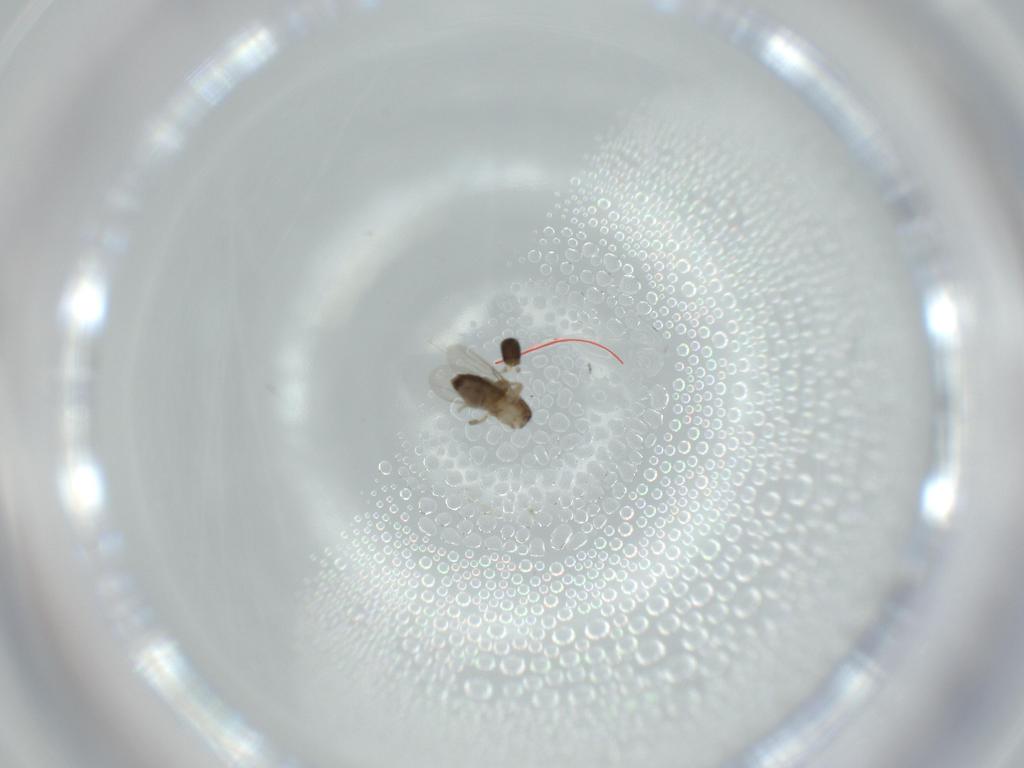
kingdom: Animalia
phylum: Arthropoda
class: Insecta
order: Diptera
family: Phoridae
